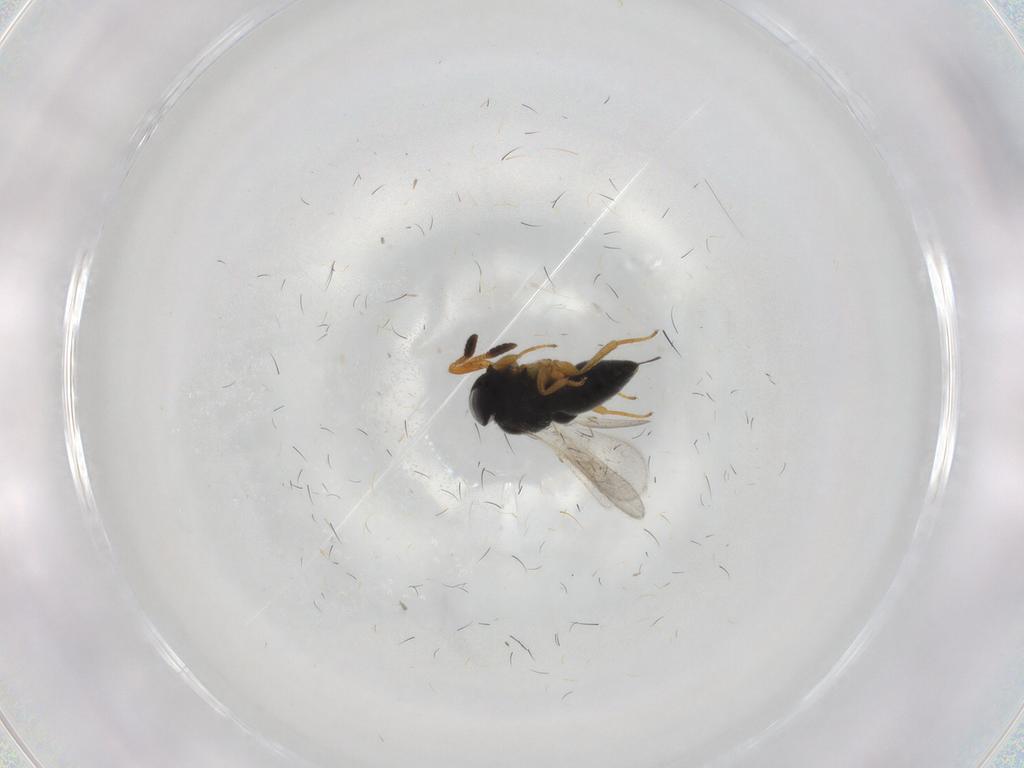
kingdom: Animalia
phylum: Arthropoda
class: Insecta
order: Hymenoptera
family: Scelionidae
